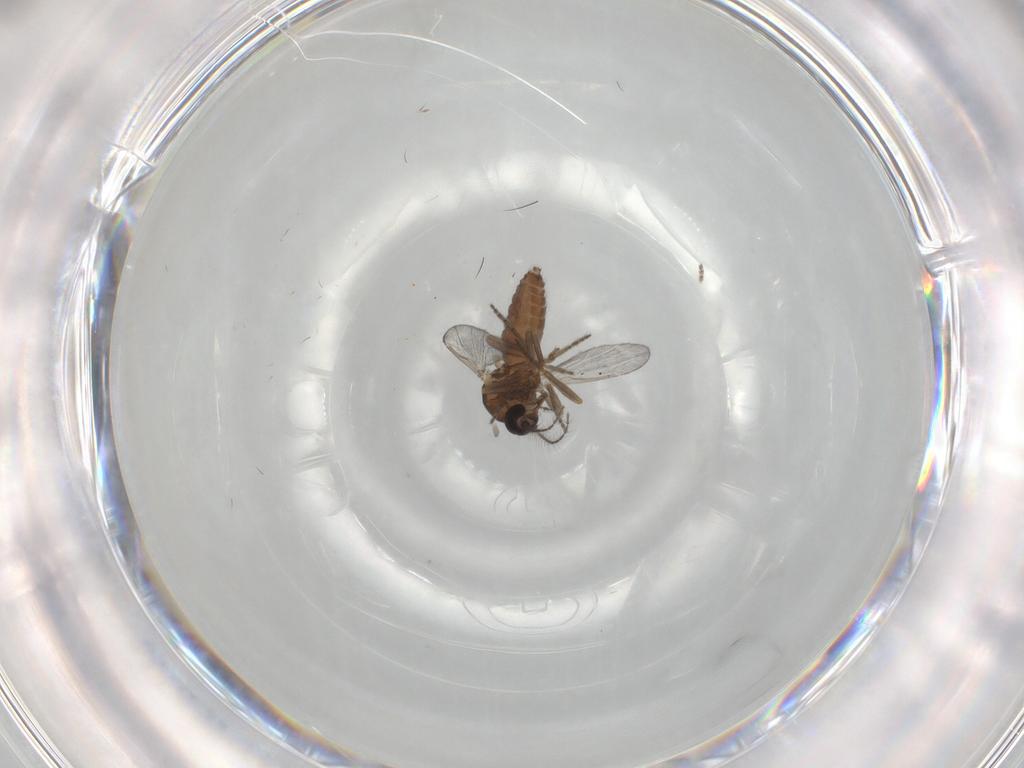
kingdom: Animalia
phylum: Arthropoda
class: Insecta
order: Diptera
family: Ceratopogonidae
